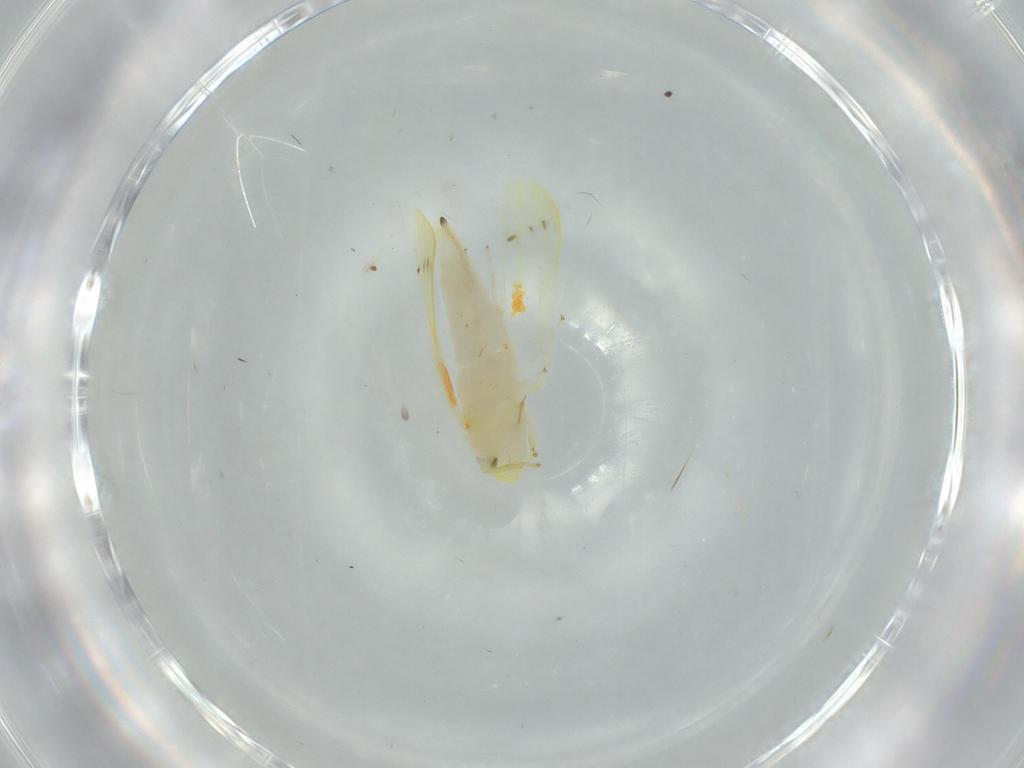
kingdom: Animalia
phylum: Arthropoda
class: Insecta
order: Hemiptera
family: Cicadellidae
